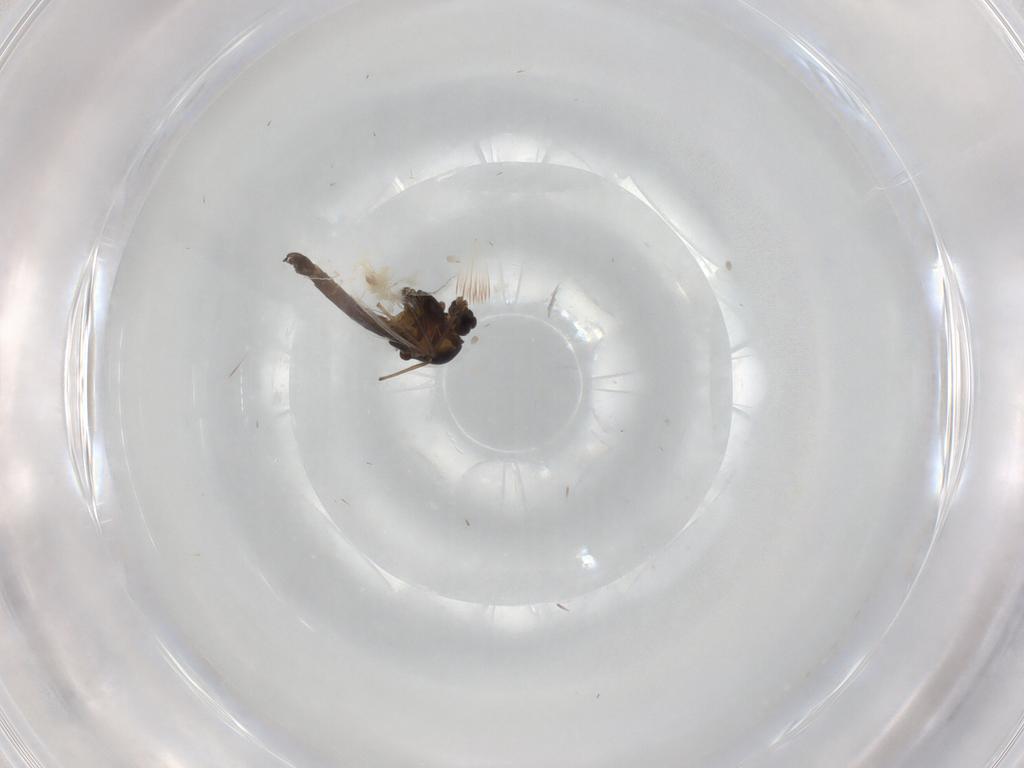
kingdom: Animalia
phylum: Arthropoda
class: Insecta
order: Diptera
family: Chironomidae
